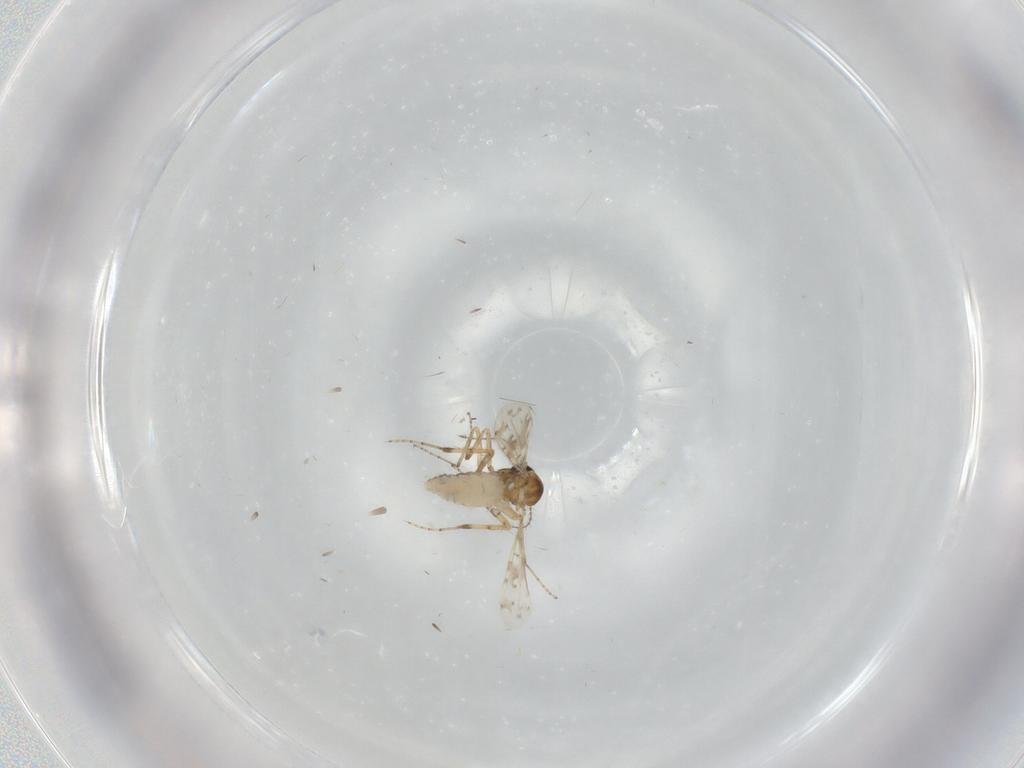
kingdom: Animalia
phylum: Arthropoda
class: Insecta
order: Diptera
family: Ceratopogonidae
